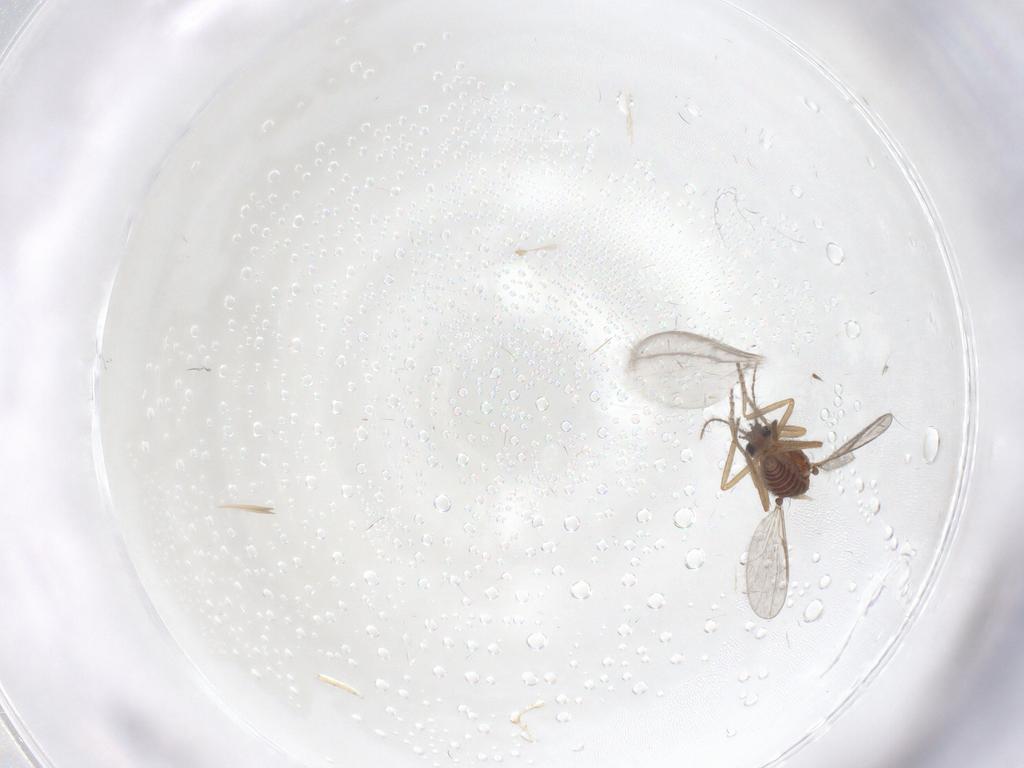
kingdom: Animalia
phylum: Arthropoda
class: Insecta
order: Diptera
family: Ceratopogonidae
